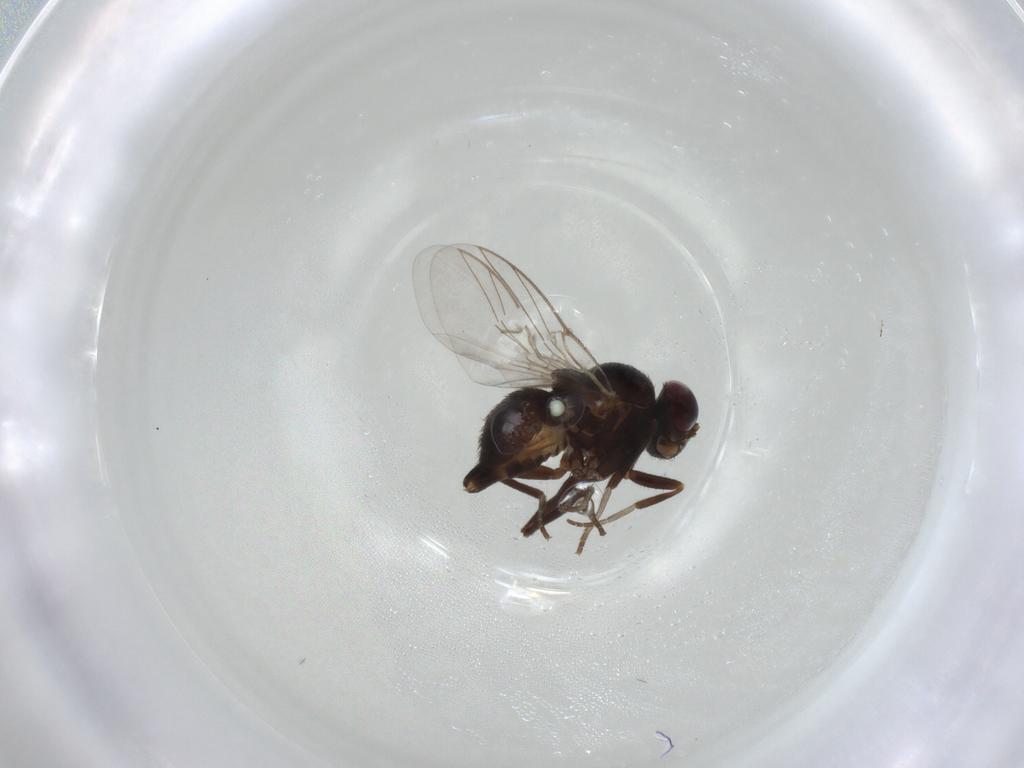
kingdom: Animalia
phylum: Arthropoda
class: Insecta
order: Diptera
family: Agromyzidae
